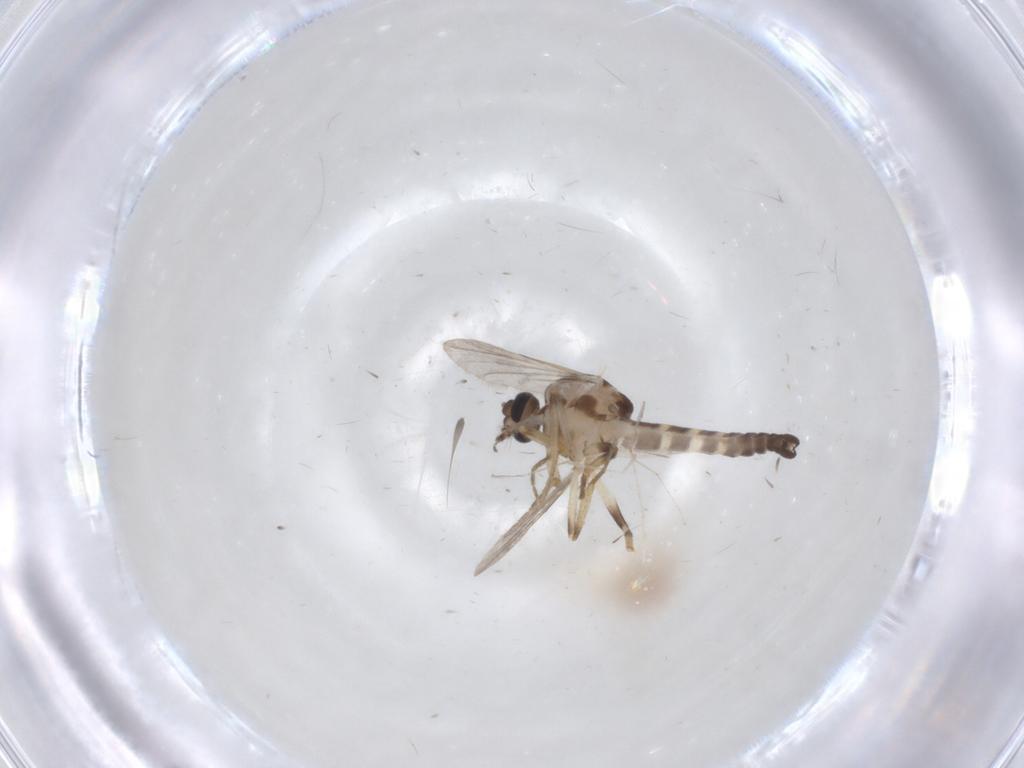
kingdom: Animalia
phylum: Arthropoda
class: Insecta
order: Diptera
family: Ceratopogonidae
